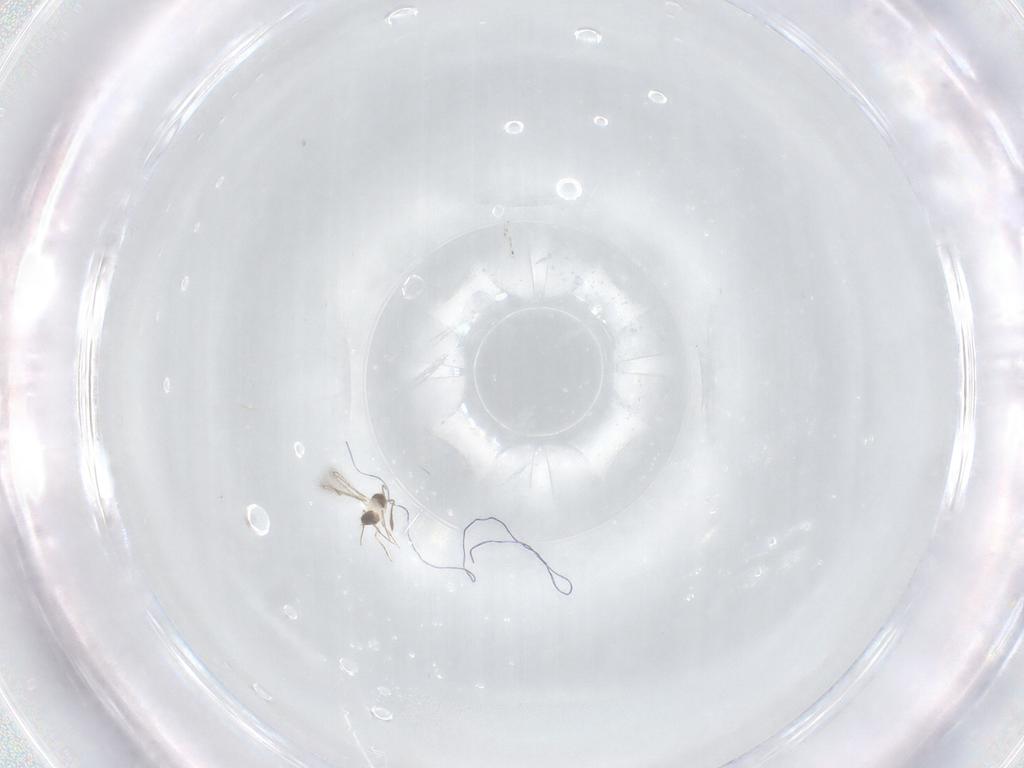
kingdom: Animalia
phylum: Arthropoda
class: Insecta
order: Hymenoptera
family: Mymaridae
